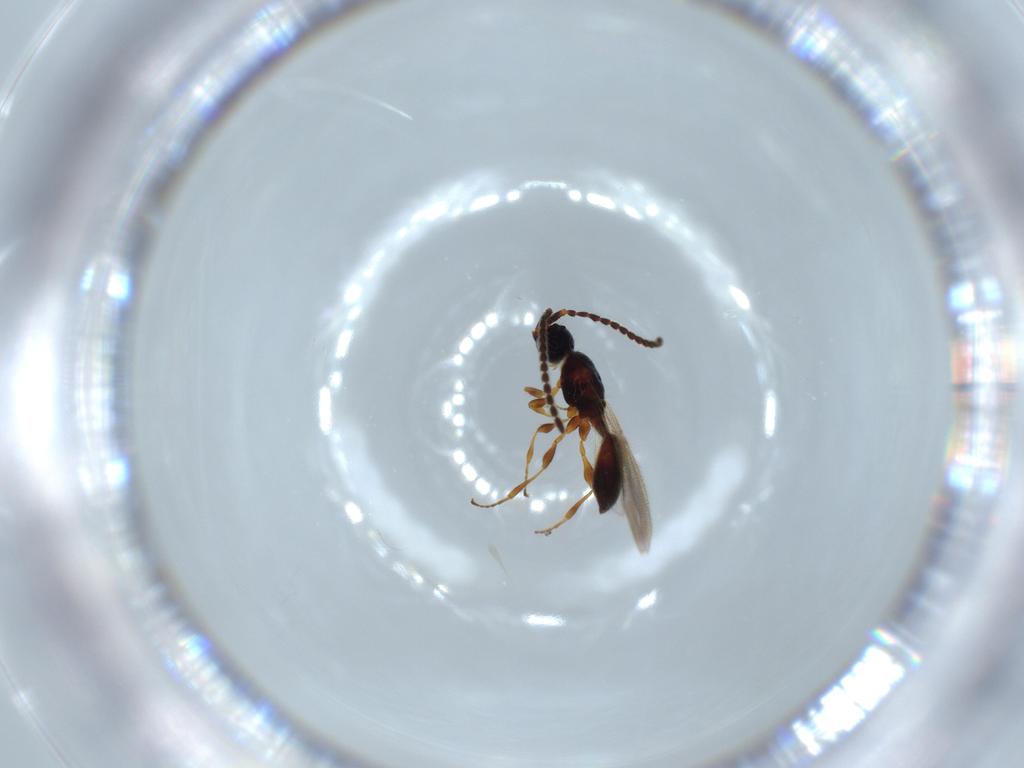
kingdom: Animalia
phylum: Arthropoda
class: Insecta
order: Hymenoptera
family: Diapriidae
